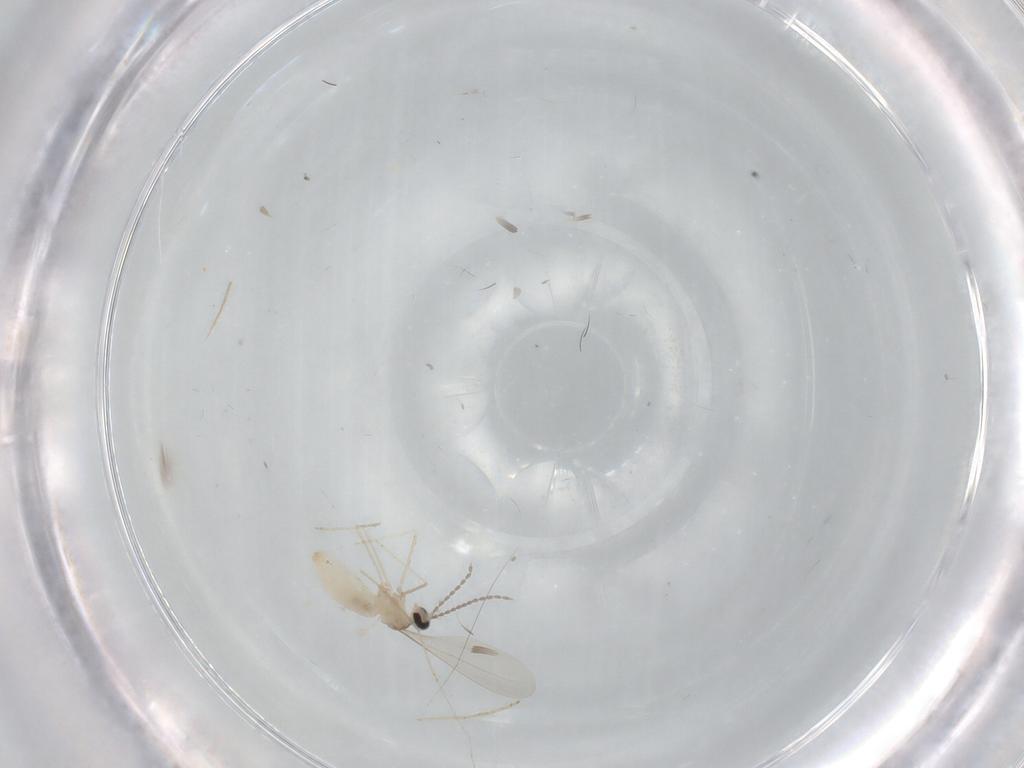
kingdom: Animalia
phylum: Arthropoda
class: Insecta
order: Diptera
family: Cecidomyiidae
